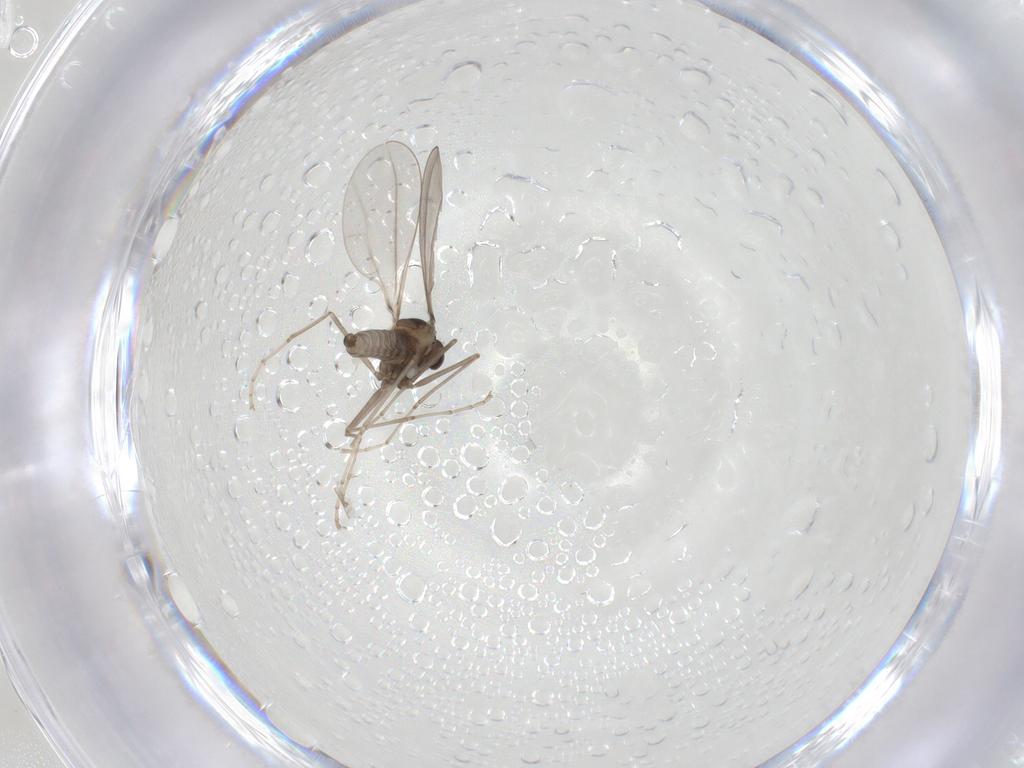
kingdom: Animalia
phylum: Arthropoda
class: Insecta
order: Diptera
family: Cecidomyiidae
